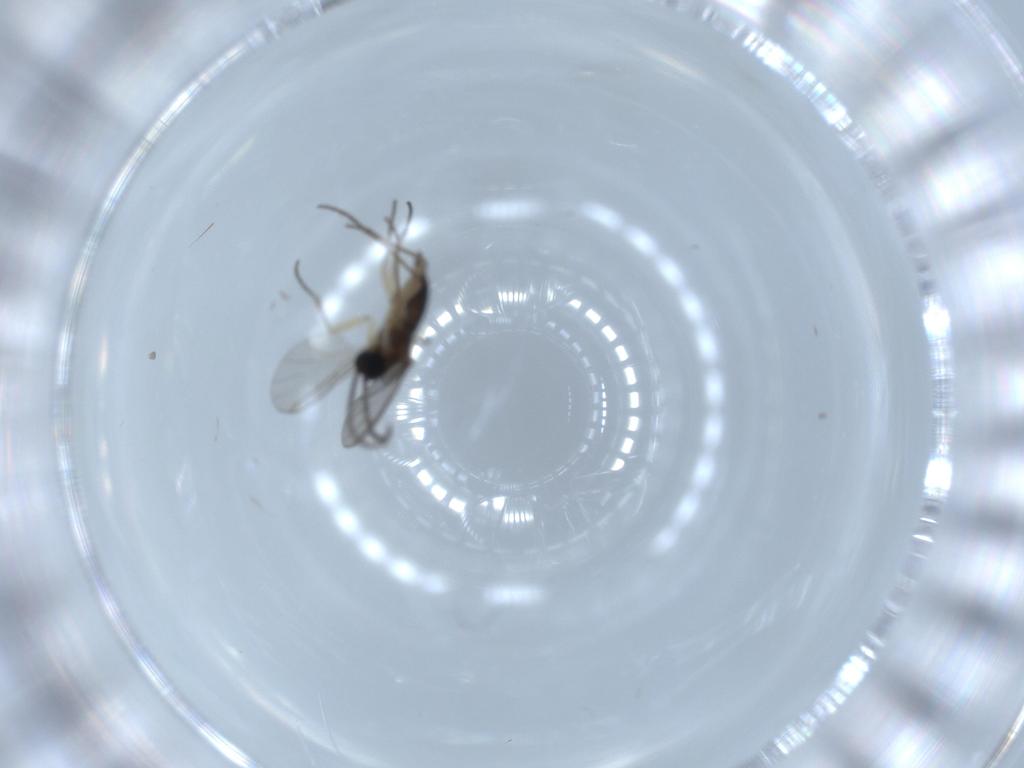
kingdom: Animalia
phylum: Arthropoda
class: Insecta
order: Diptera
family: Sciaridae
